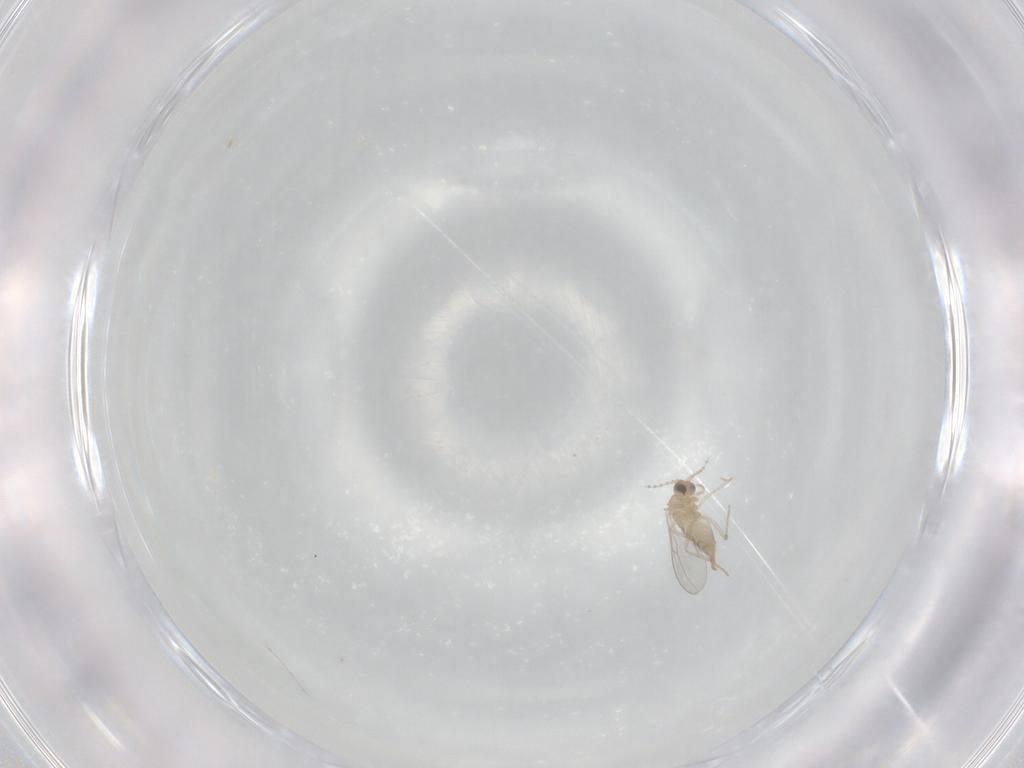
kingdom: Animalia
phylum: Arthropoda
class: Insecta
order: Diptera
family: Cecidomyiidae
